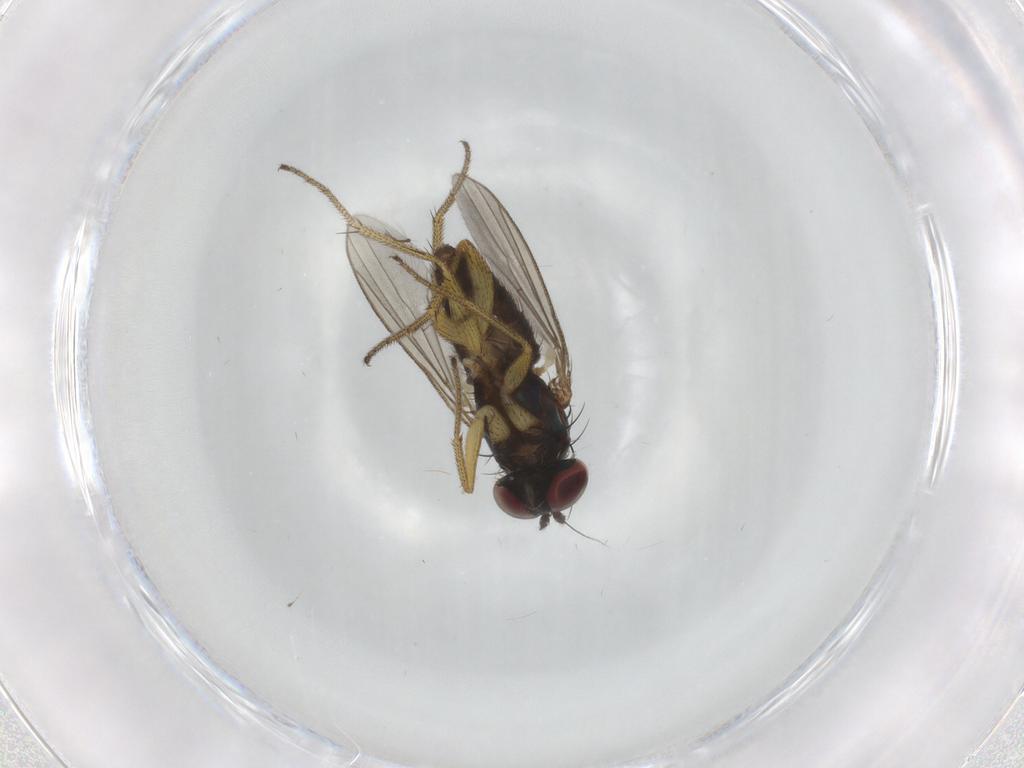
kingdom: Animalia
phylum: Arthropoda
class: Insecta
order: Diptera
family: Dolichopodidae
